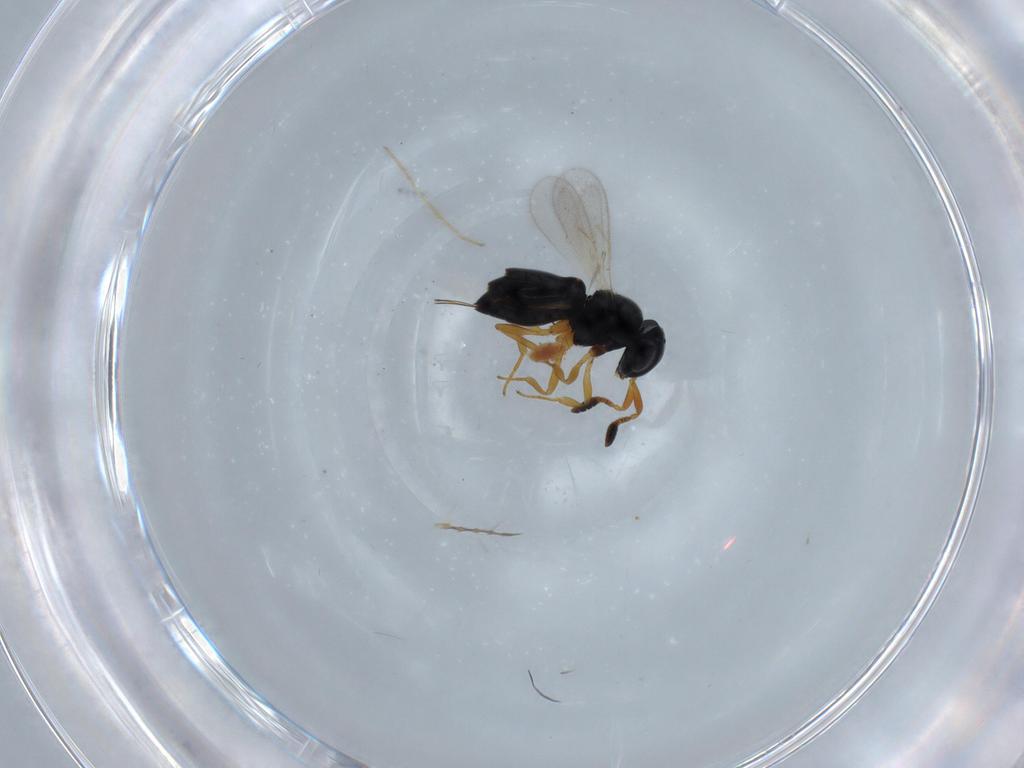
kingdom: Animalia
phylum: Arthropoda
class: Insecta
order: Hymenoptera
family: Scelionidae
